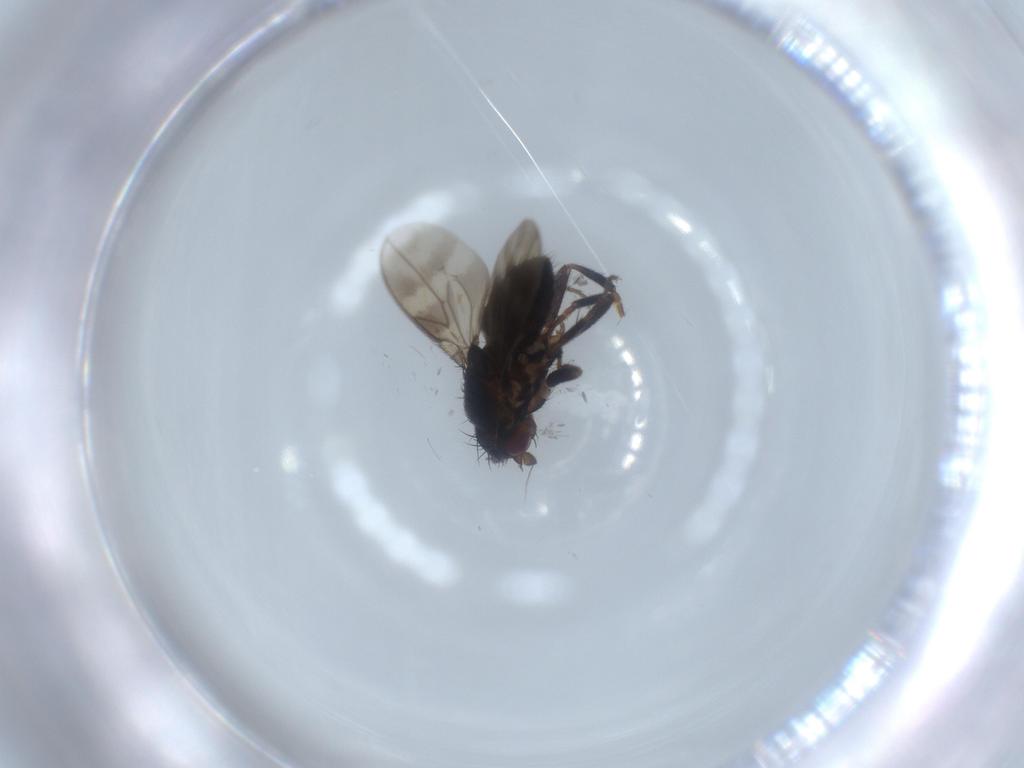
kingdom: Animalia
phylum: Arthropoda
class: Insecta
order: Diptera
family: Sphaeroceridae
